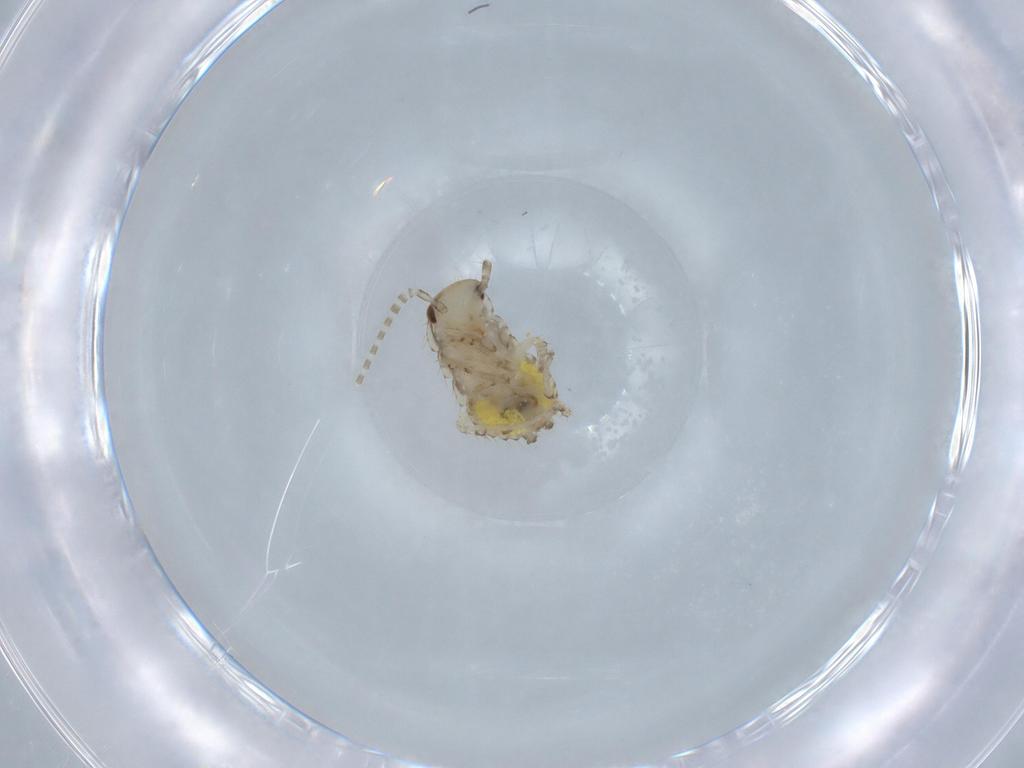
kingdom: Animalia
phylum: Arthropoda
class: Insecta
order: Blattodea
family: Ectobiidae
